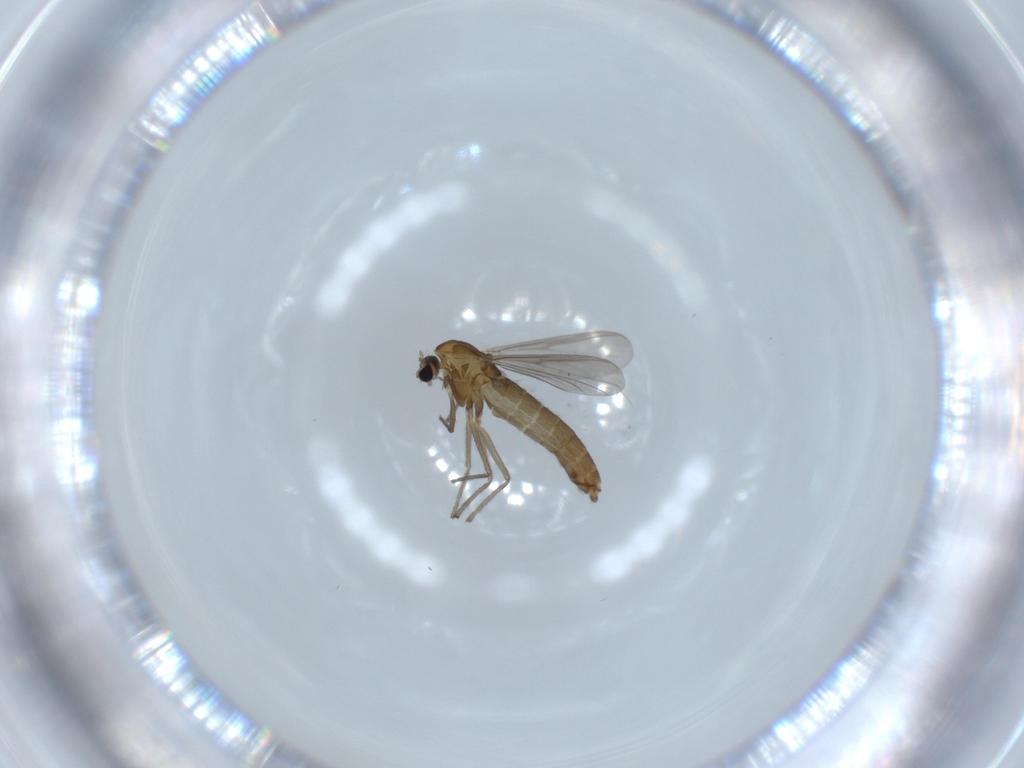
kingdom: Animalia
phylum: Arthropoda
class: Insecta
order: Diptera
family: Chironomidae
